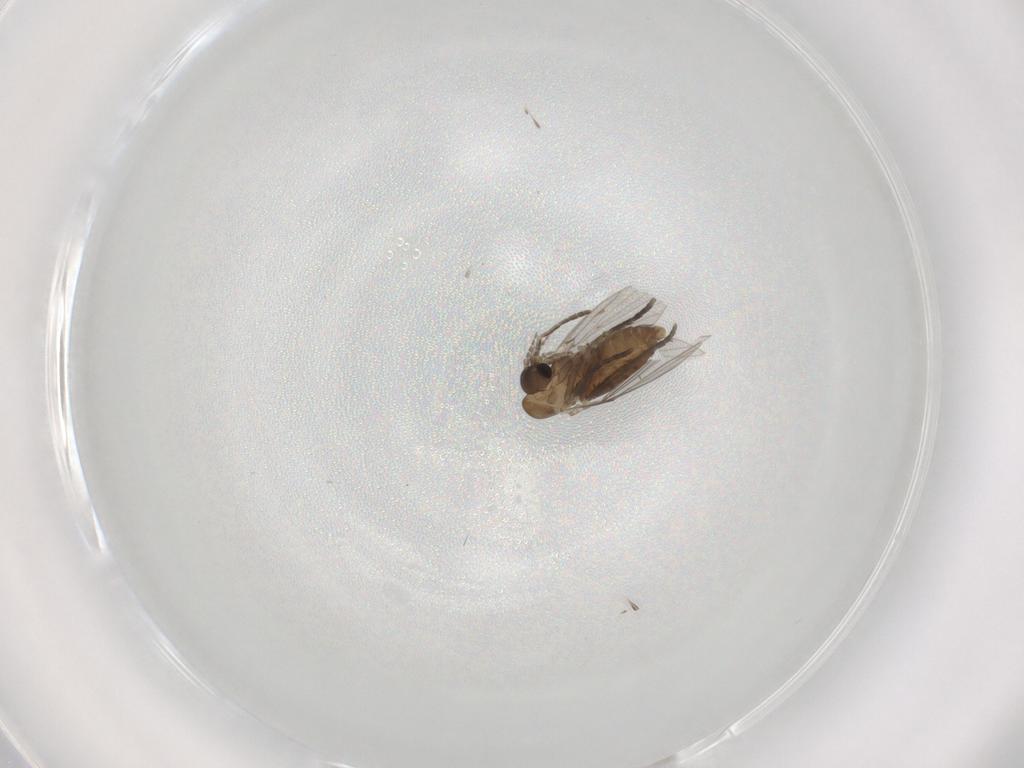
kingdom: Animalia
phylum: Arthropoda
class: Insecta
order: Diptera
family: Psychodidae
